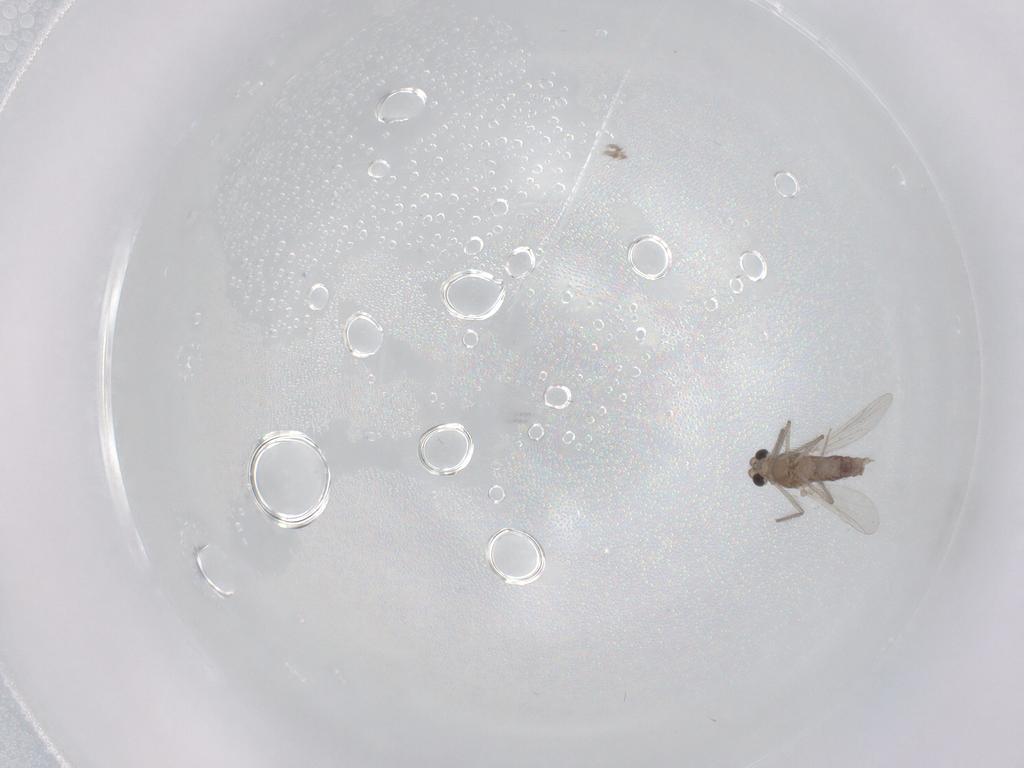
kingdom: Animalia
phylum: Arthropoda
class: Insecta
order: Diptera
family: Chironomidae
